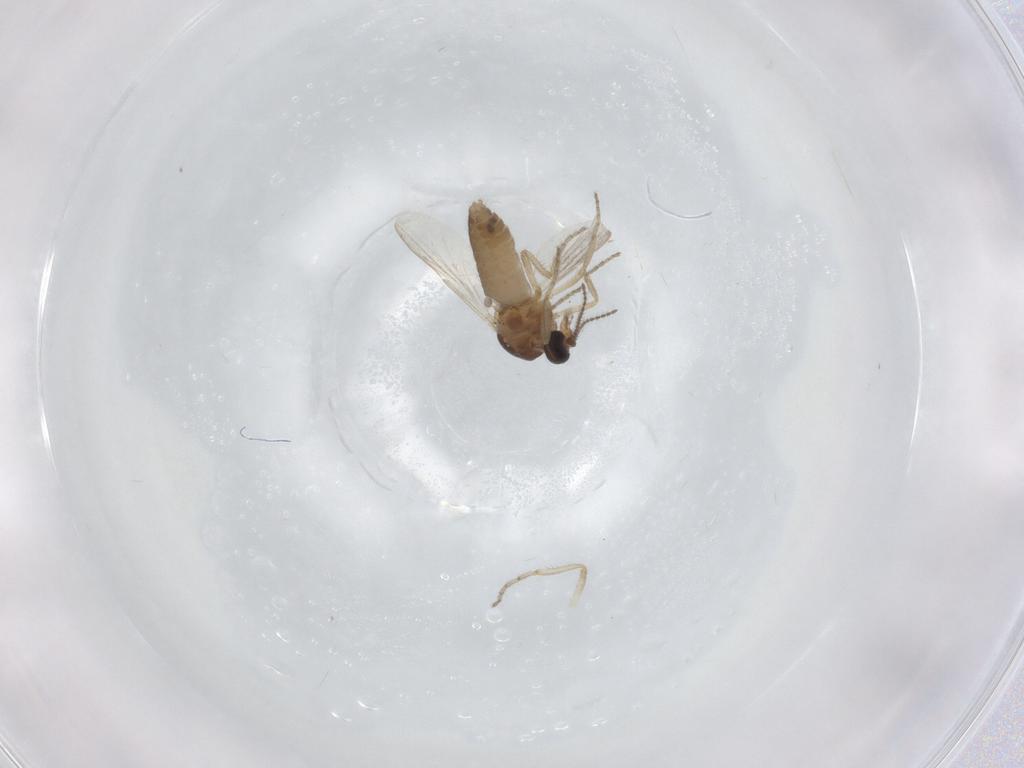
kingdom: Animalia
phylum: Arthropoda
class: Insecta
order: Diptera
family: Ceratopogonidae
